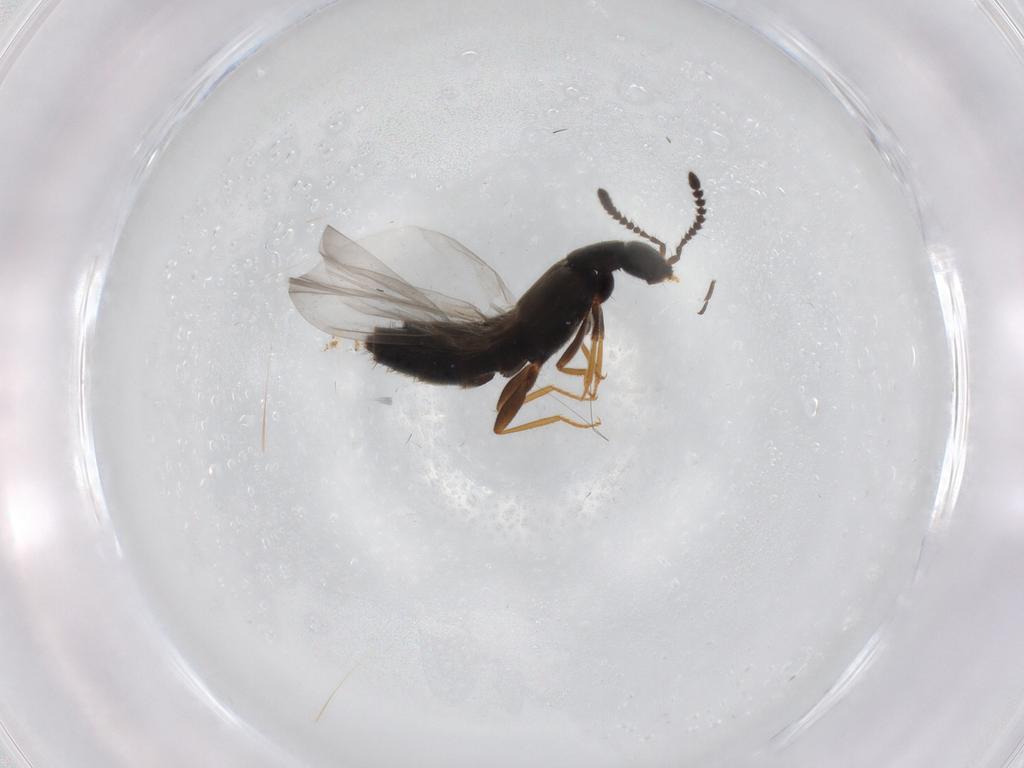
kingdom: Animalia
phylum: Arthropoda
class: Insecta
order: Coleoptera
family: Staphylinidae
